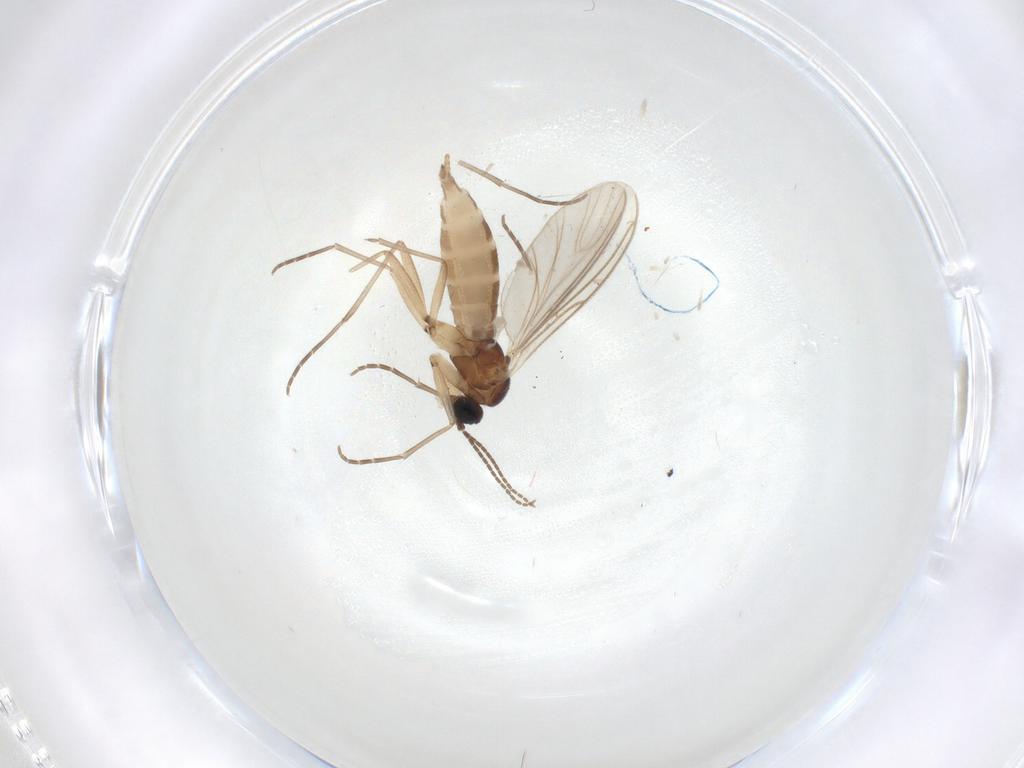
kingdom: Animalia
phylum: Arthropoda
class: Insecta
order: Diptera
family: Sciaridae
